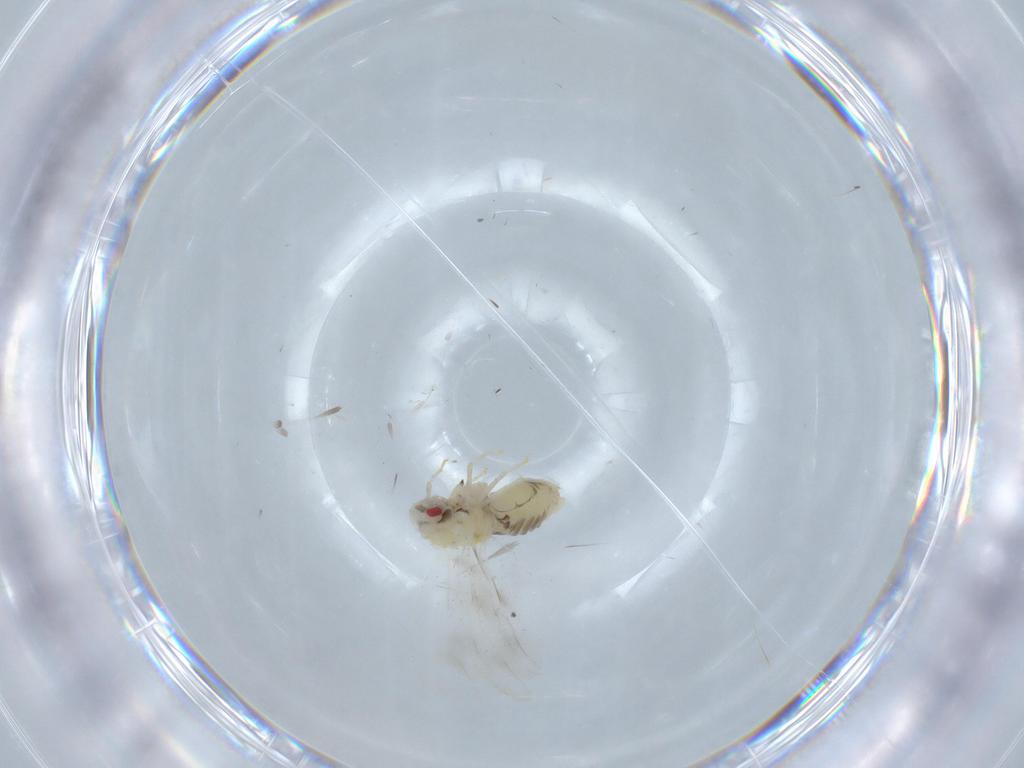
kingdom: Animalia
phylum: Arthropoda
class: Insecta
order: Hemiptera
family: Aleyrodidae
